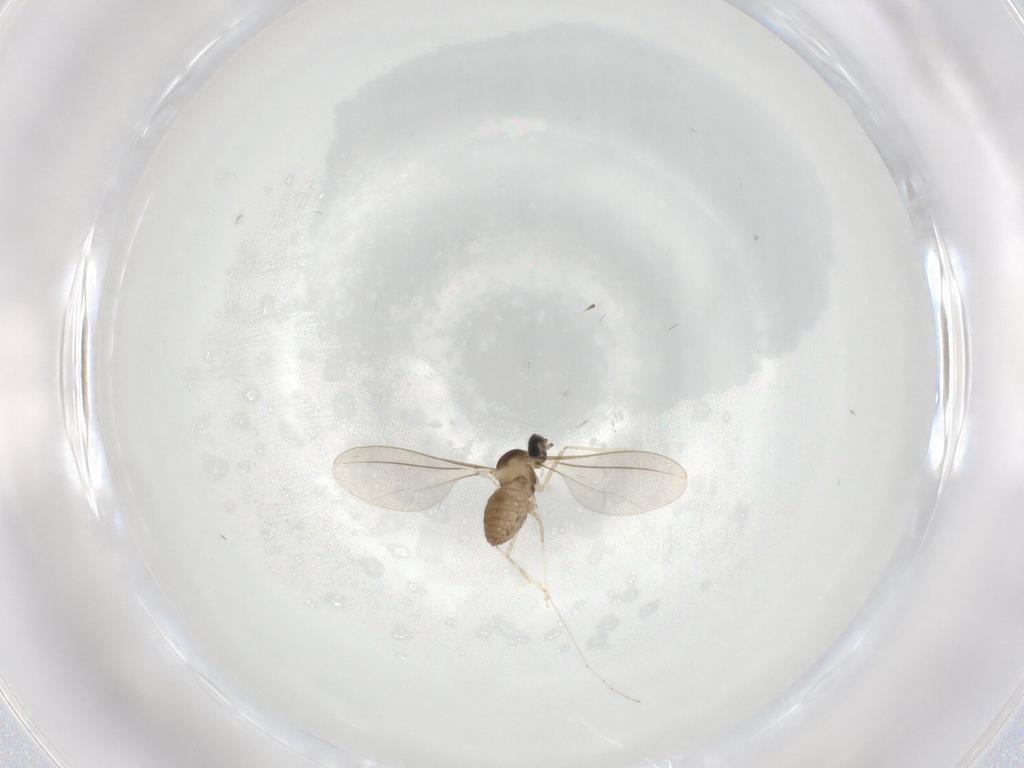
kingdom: Animalia
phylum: Arthropoda
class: Insecta
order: Diptera
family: Cecidomyiidae
